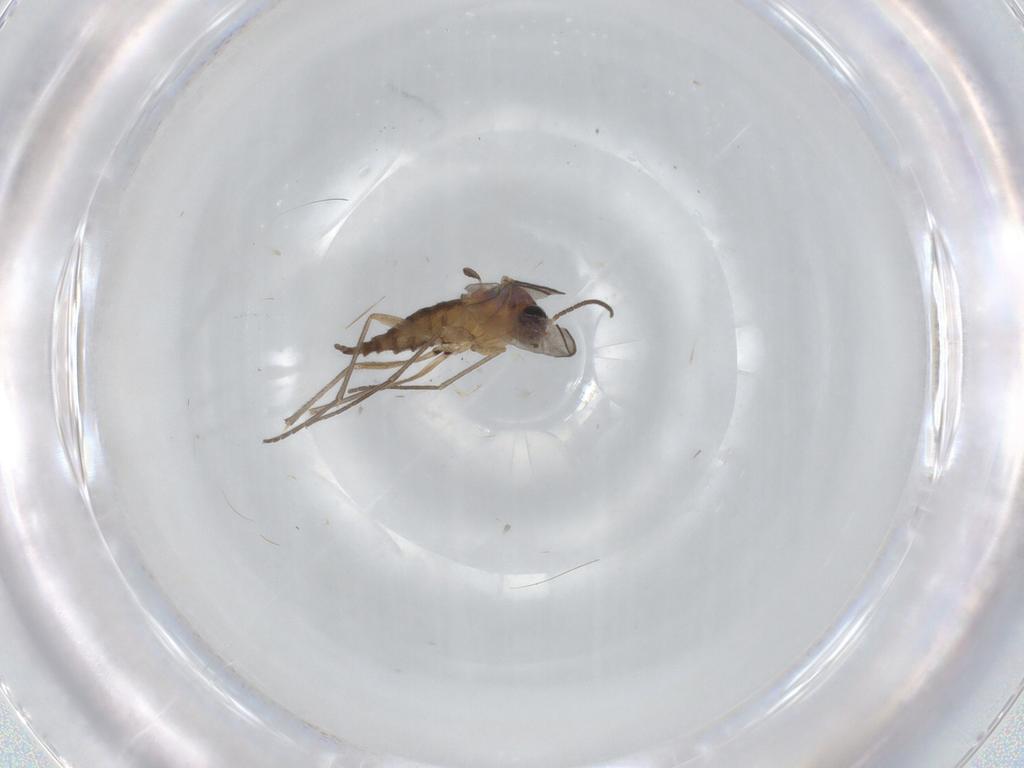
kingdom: Animalia
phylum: Arthropoda
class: Insecta
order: Diptera
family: Sciaridae
